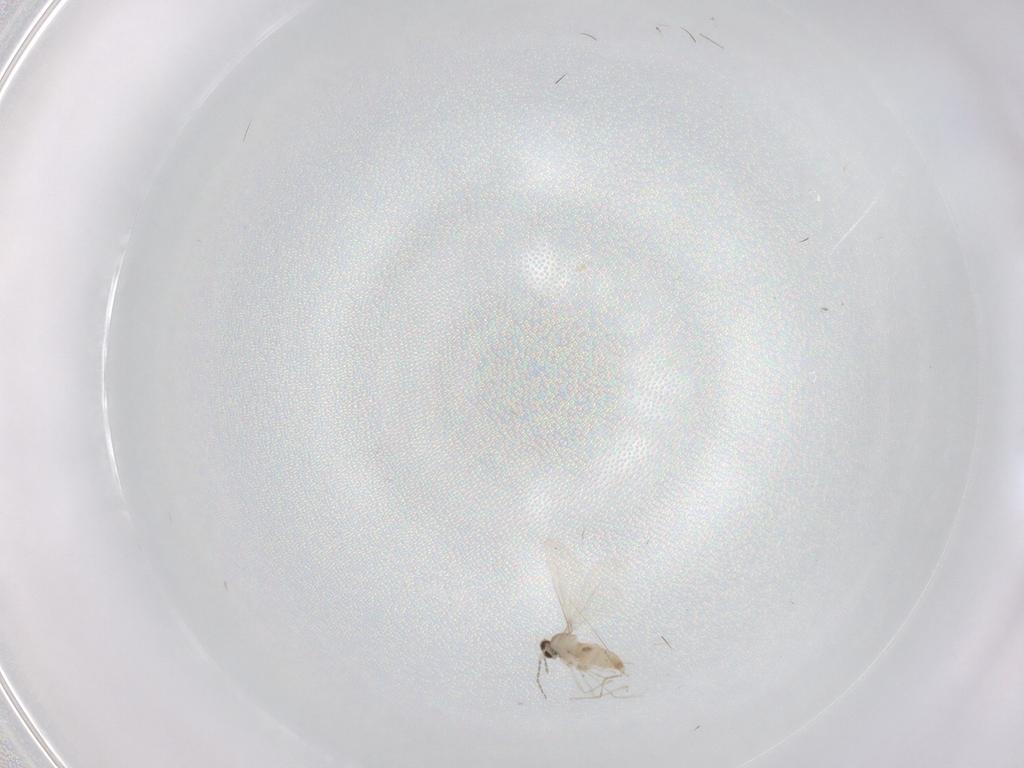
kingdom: Animalia
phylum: Arthropoda
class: Insecta
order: Diptera
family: Cecidomyiidae
